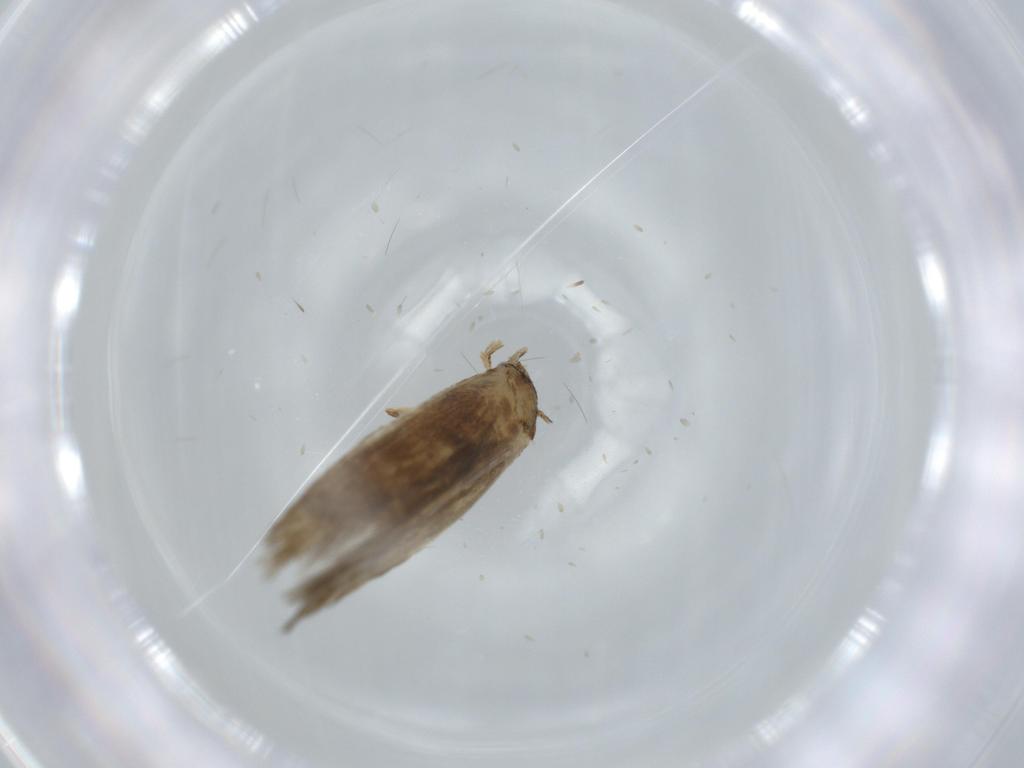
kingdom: Animalia
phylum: Arthropoda
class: Insecta
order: Lepidoptera
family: Tineidae
